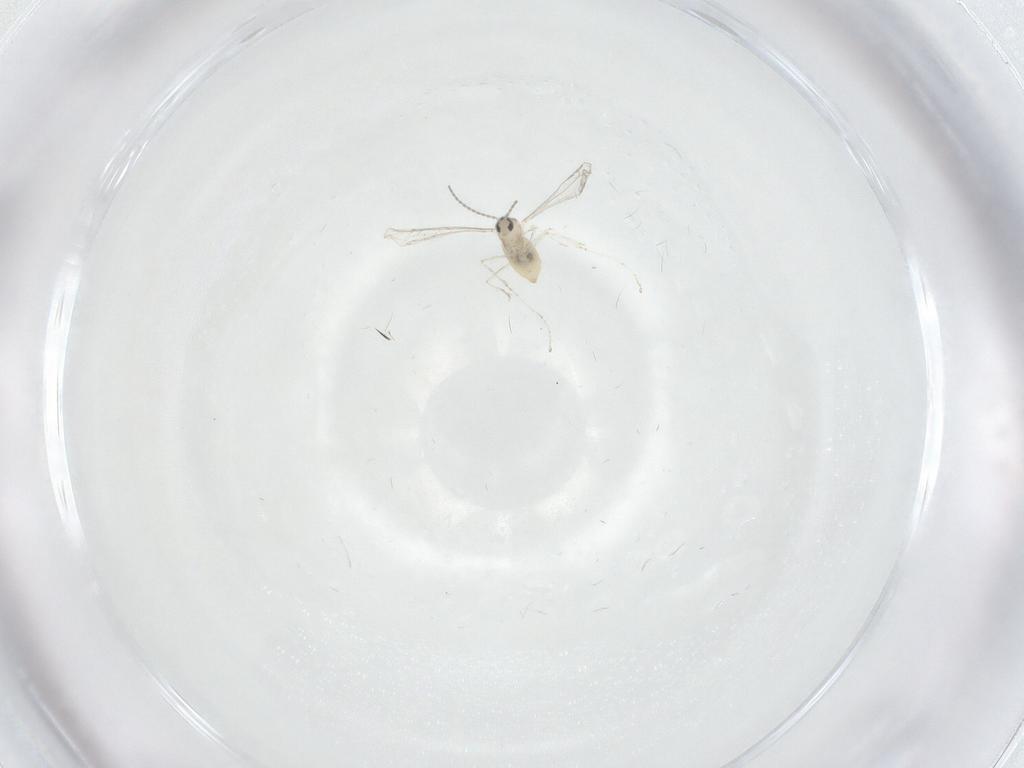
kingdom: Animalia
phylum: Arthropoda
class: Insecta
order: Diptera
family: Cecidomyiidae
